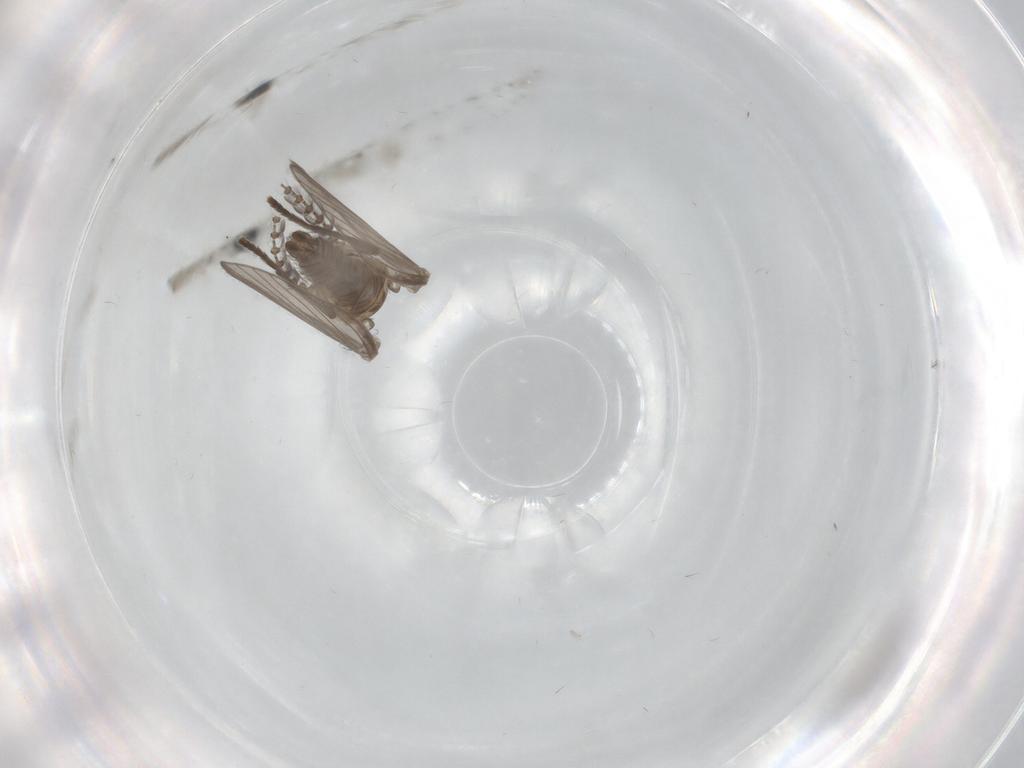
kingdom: Animalia
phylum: Arthropoda
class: Insecta
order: Diptera
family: Psychodidae
